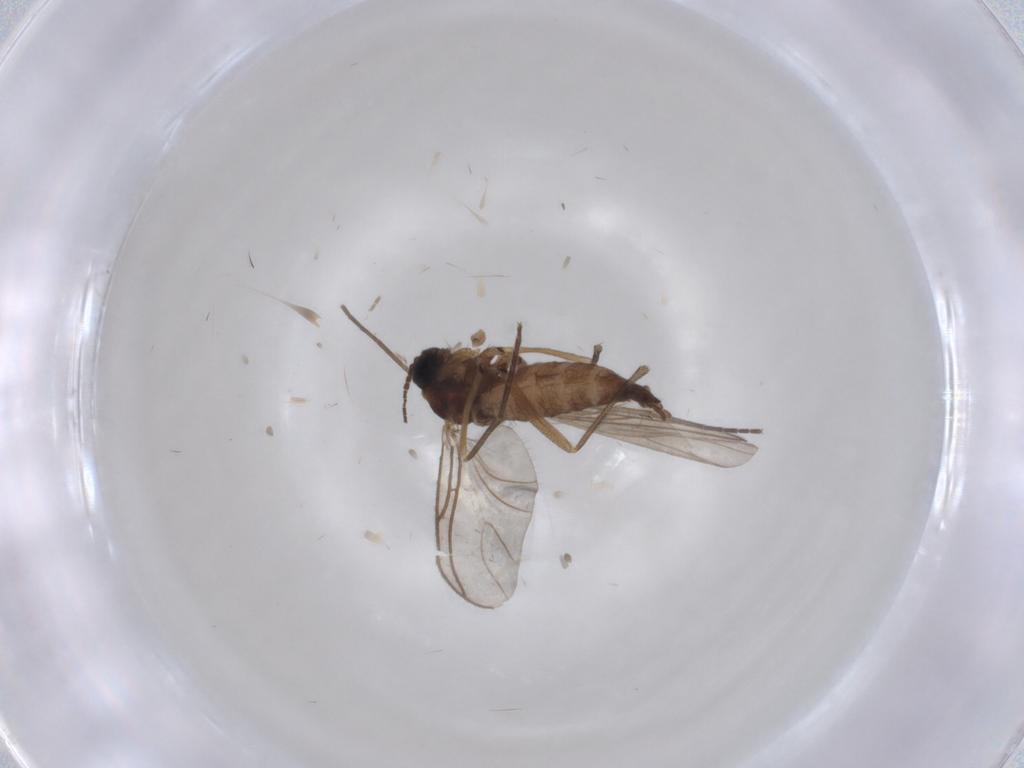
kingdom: Animalia
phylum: Arthropoda
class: Insecta
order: Diptera
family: Sciaridae
